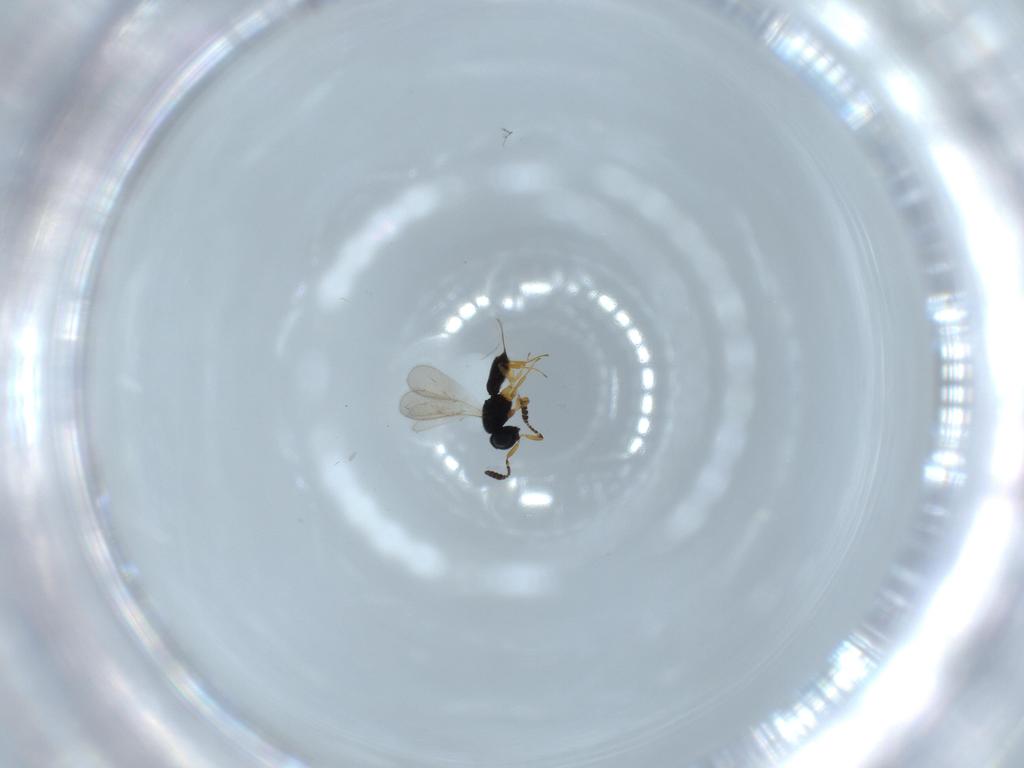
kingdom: Animalia
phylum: Arthropoda
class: Insecta
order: Hymenoptera
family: Scelionidae
